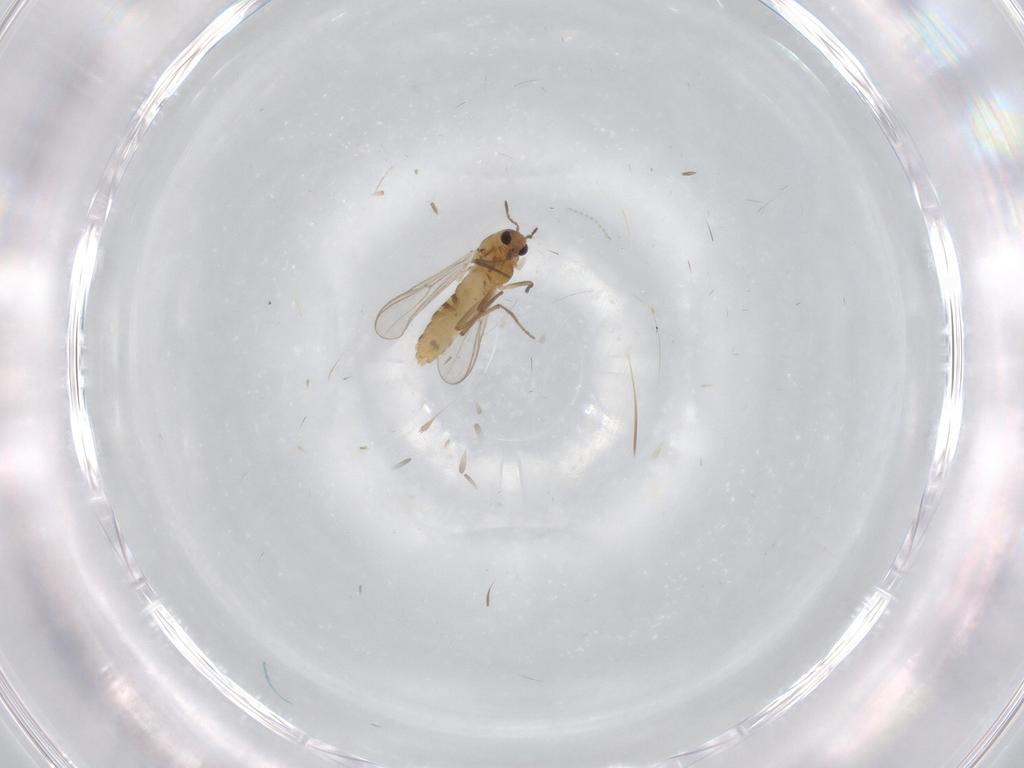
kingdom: Animalia
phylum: Arthropoda
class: Insecta
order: Diptera
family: Chironomidae
